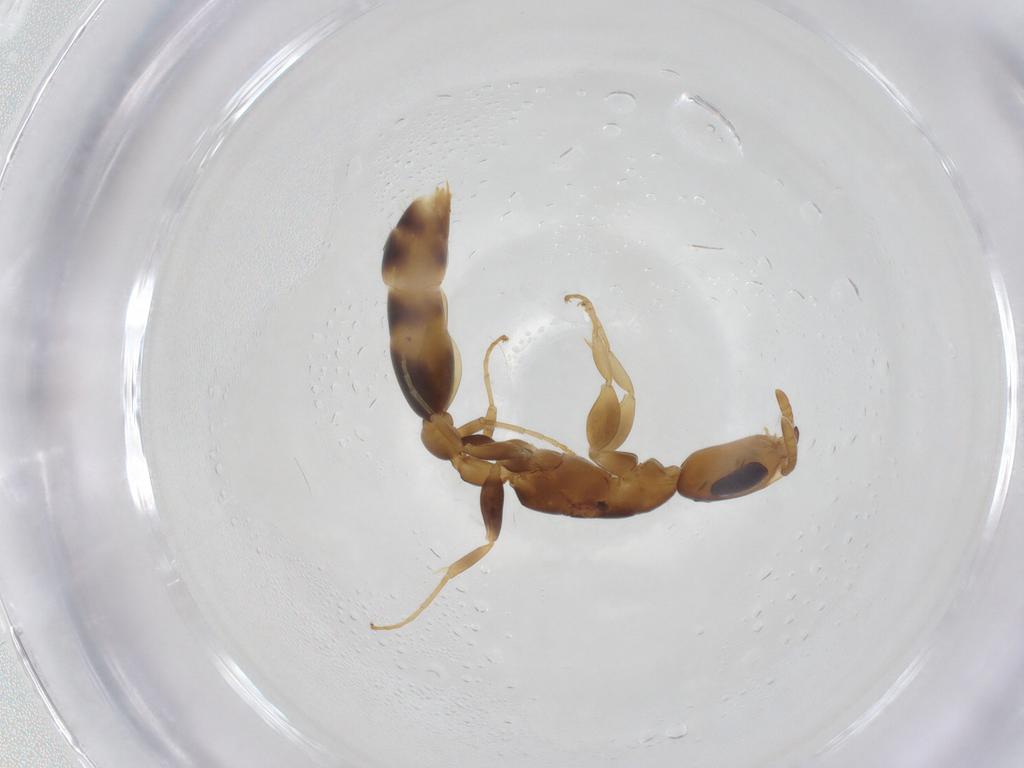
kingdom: Animalia
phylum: Arthropoda
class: Insecta
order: Hymenoptera
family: Formicidae
